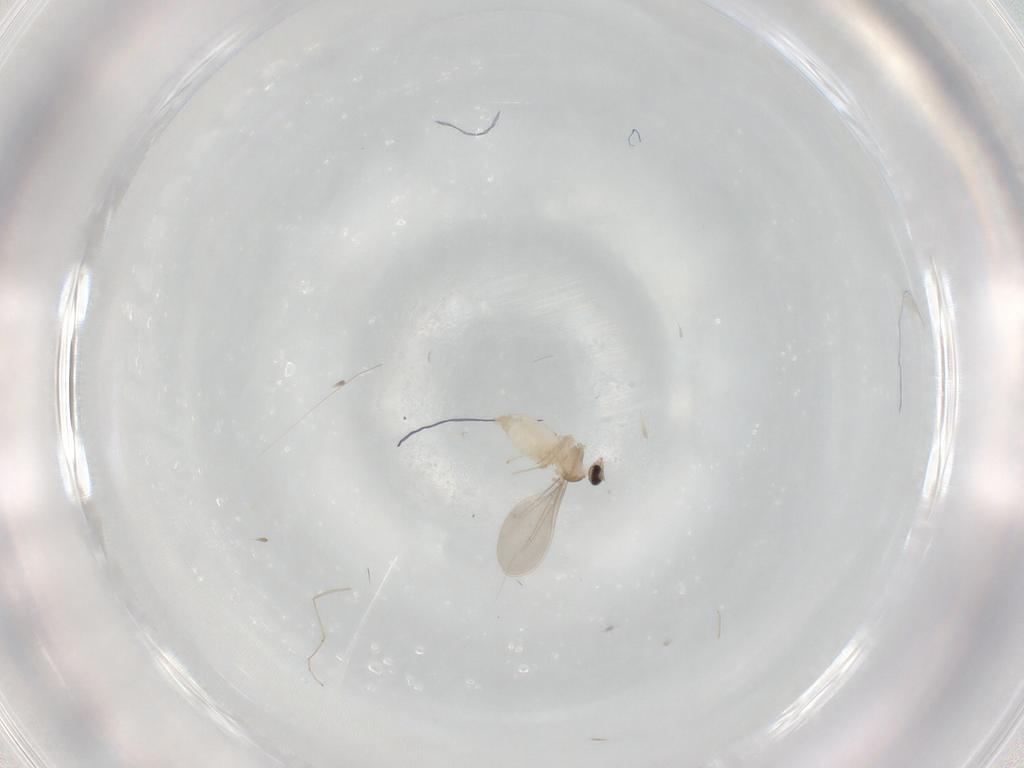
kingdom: Animalia
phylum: Arthropoda
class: Insecta
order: Diptera
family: Cecidomyiidae
